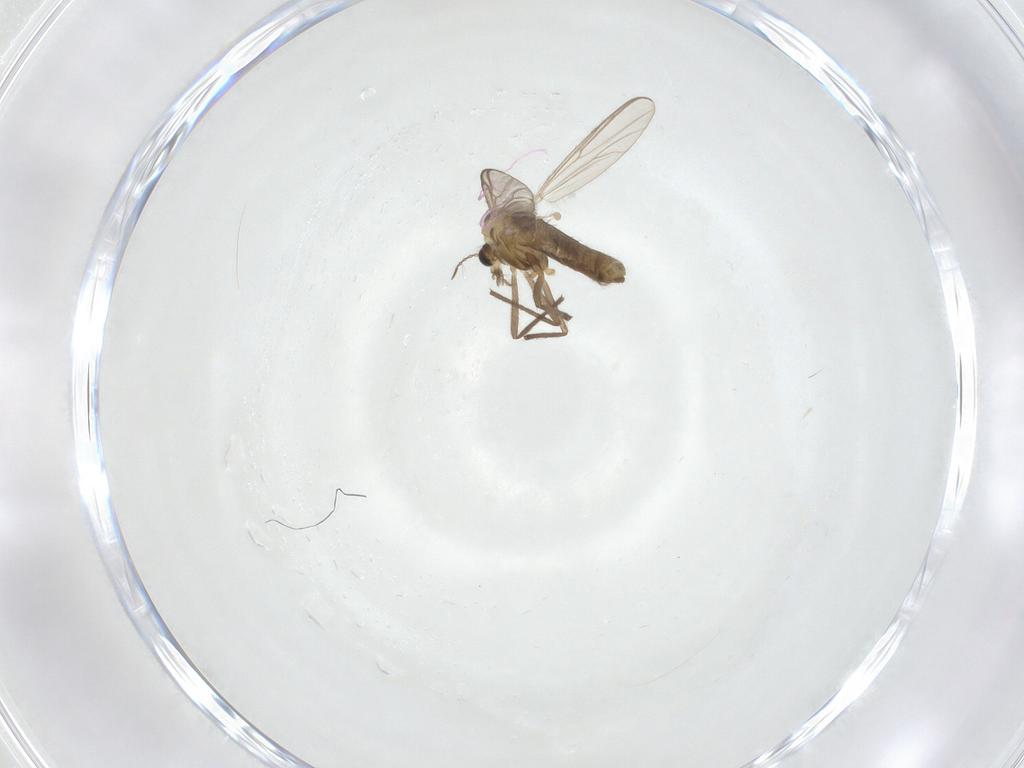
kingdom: Animalia
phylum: Arthropoda
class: Insecta
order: Diptera
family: Chironomidae
